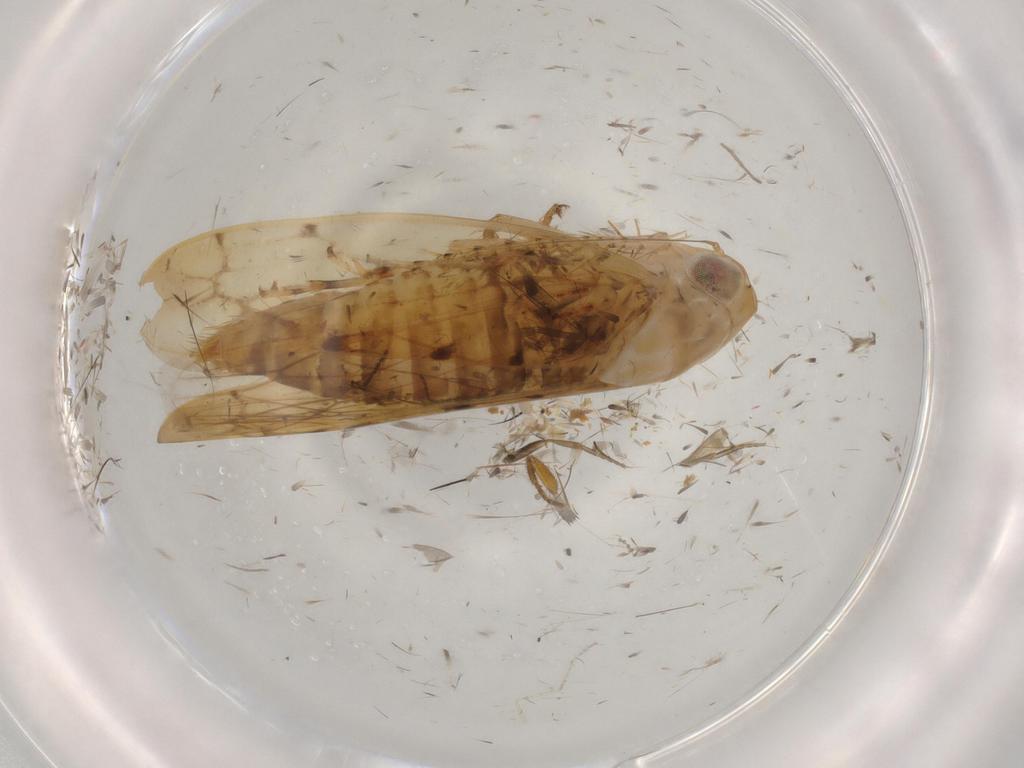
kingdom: Animalia
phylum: Arthropoda
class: Insecta
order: Hemiptera
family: Cicadellidae
